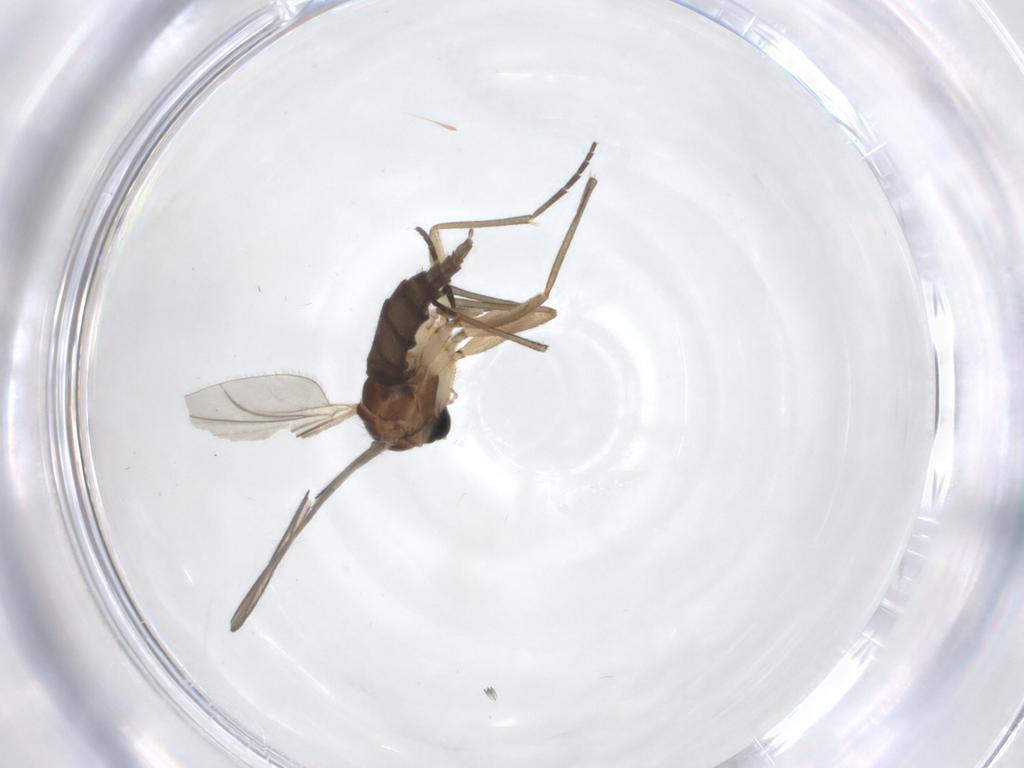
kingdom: Animalia
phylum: Arthropoda
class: Insecta
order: Diptera
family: Sciaridae
